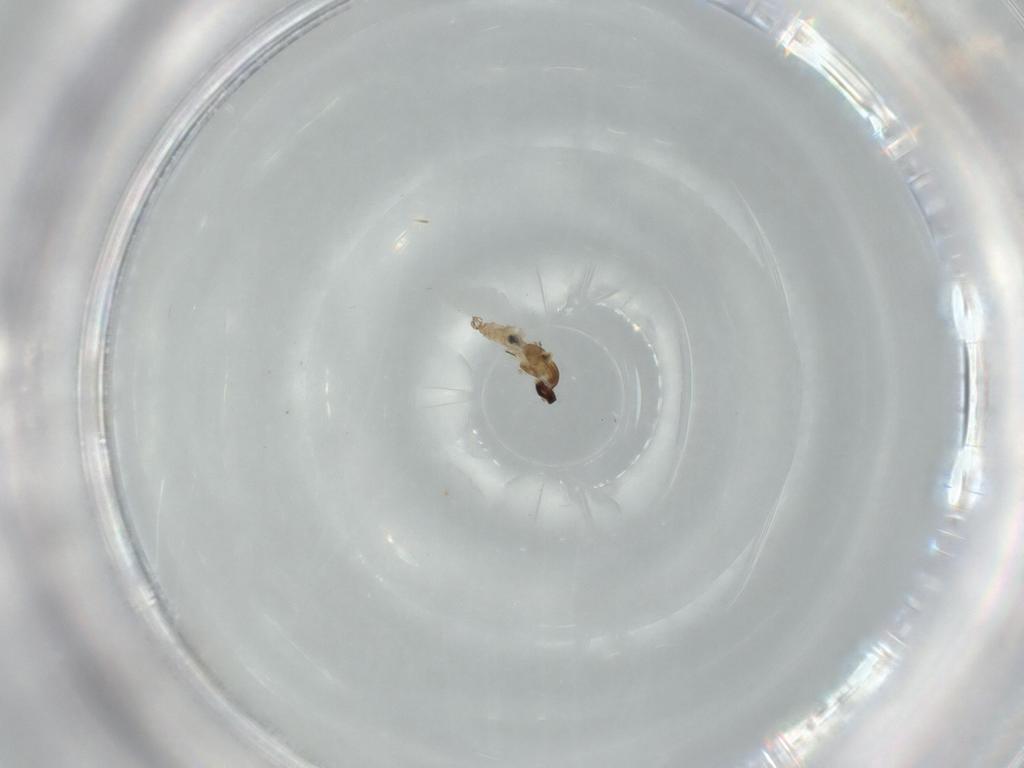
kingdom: Animalia
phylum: Arthropoda
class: Insecta
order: Diptera
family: Cecidomyiidae
